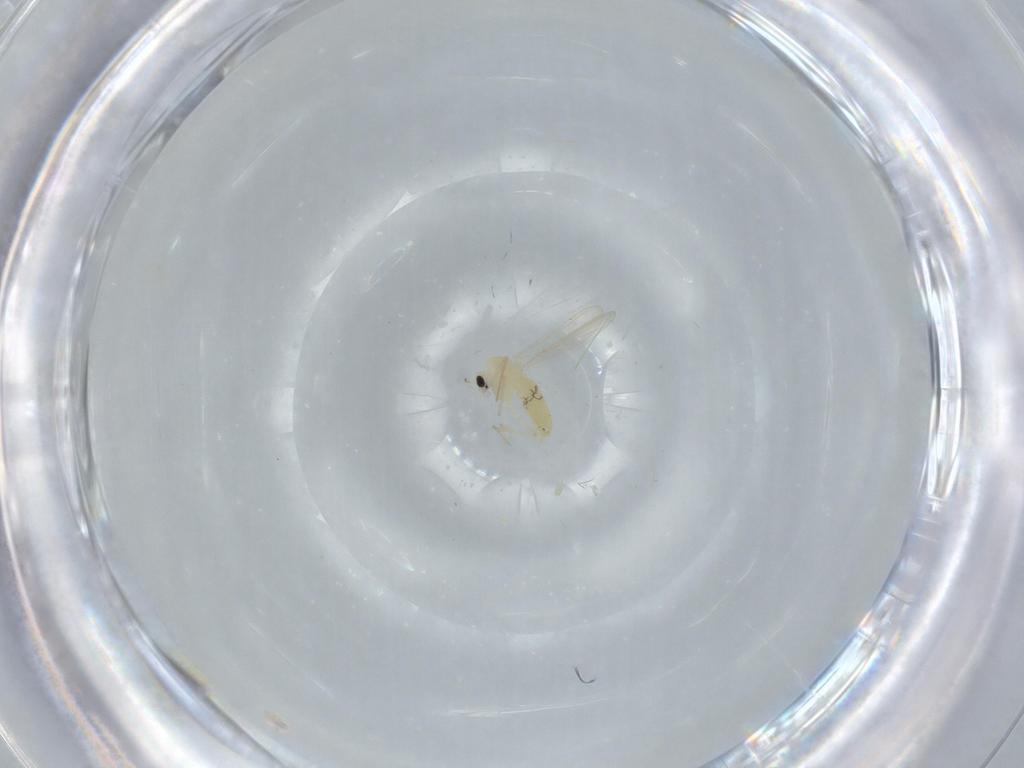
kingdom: Animalia
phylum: Arthropoda
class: Insecta
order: Diptera
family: Chironomidae
